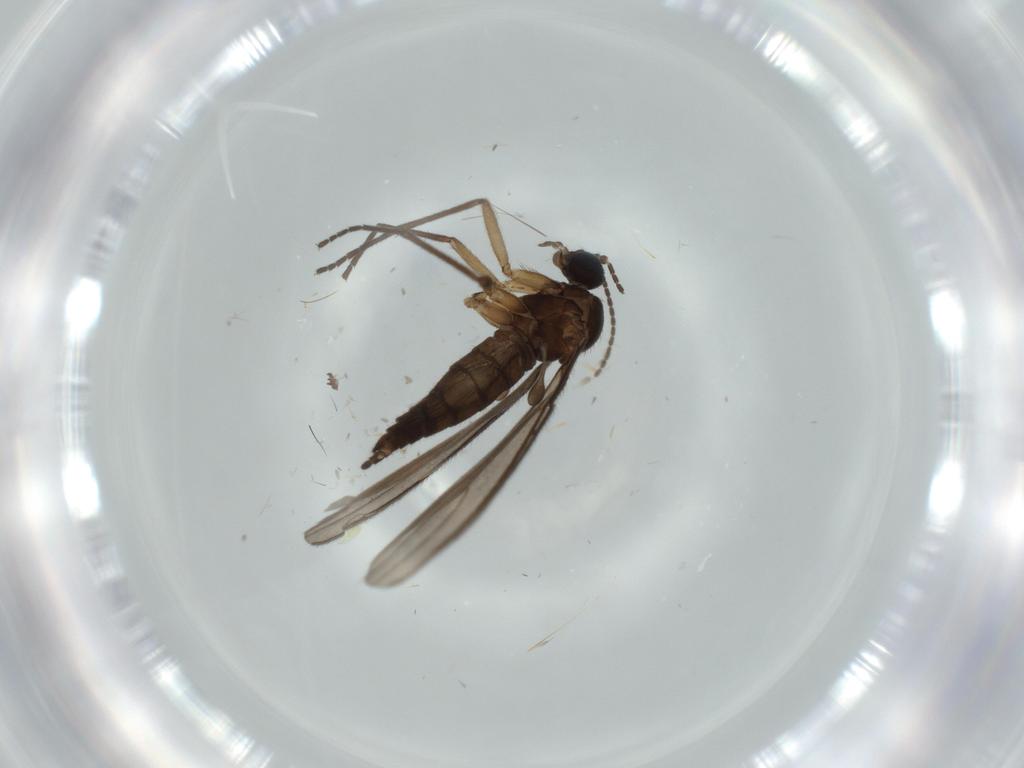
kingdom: Animalia
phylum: Arthropoda
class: Insecta
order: Diptera
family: Sciaridae
